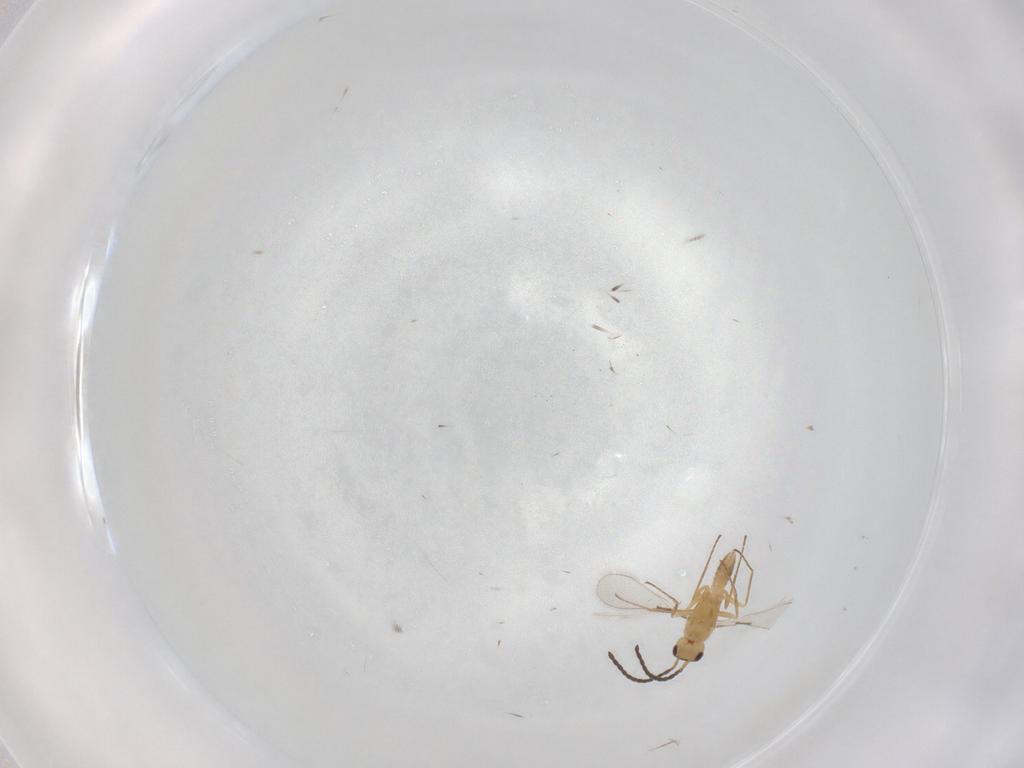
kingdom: Animalia
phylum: Arthropoda
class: Insecta
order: Hymenoptera
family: Mymaridae
